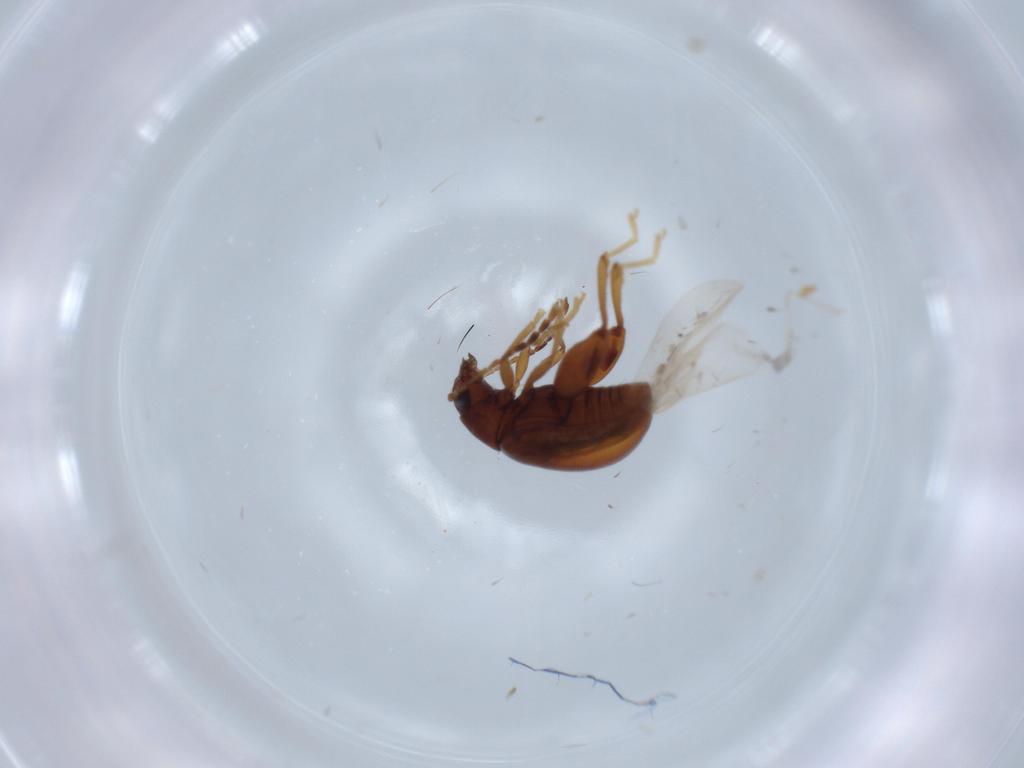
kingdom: Animalia
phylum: Arthropoda
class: Insecta
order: Coleoptera
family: Chrysomelidae
